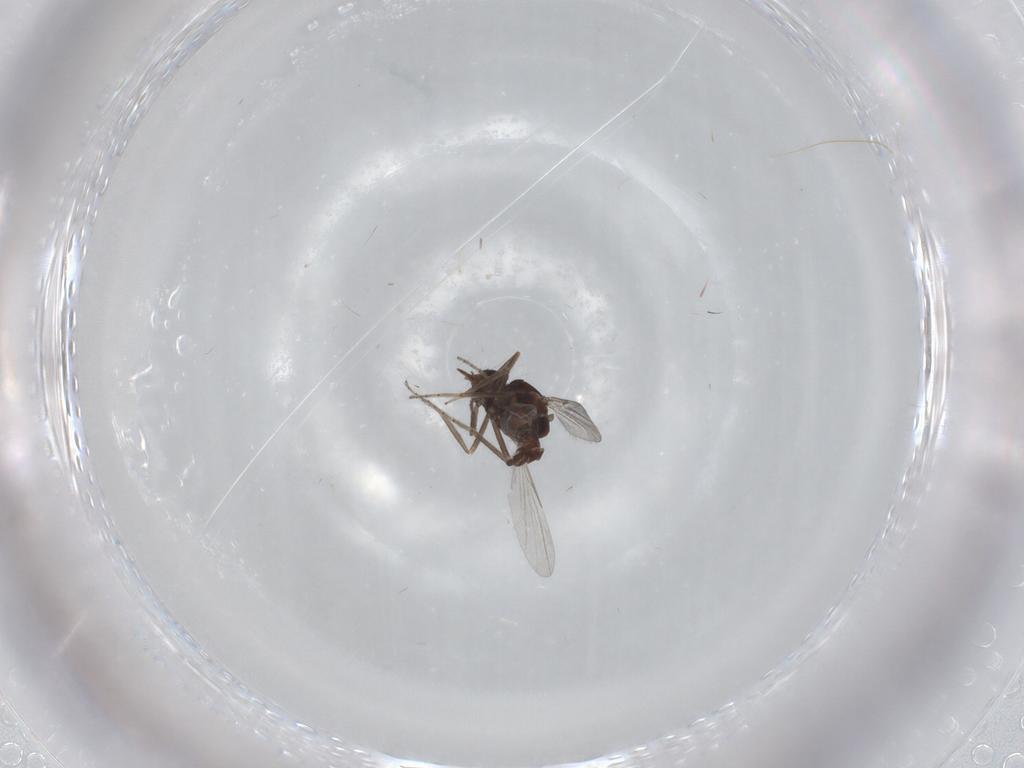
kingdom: Animalia
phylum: Arthropoda
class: Insecta
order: Diptera
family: Ceratopogonidae
